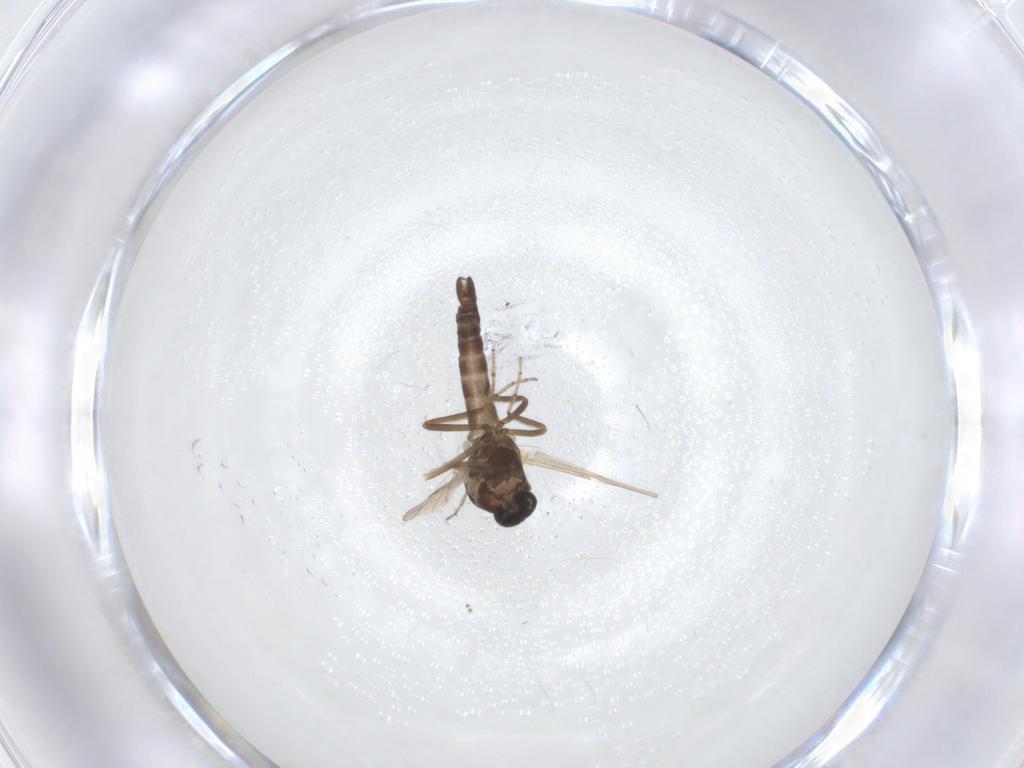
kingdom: Animalia
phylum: Arthropoda
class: Insecta
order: Diptera
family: Ceratopogonidae
